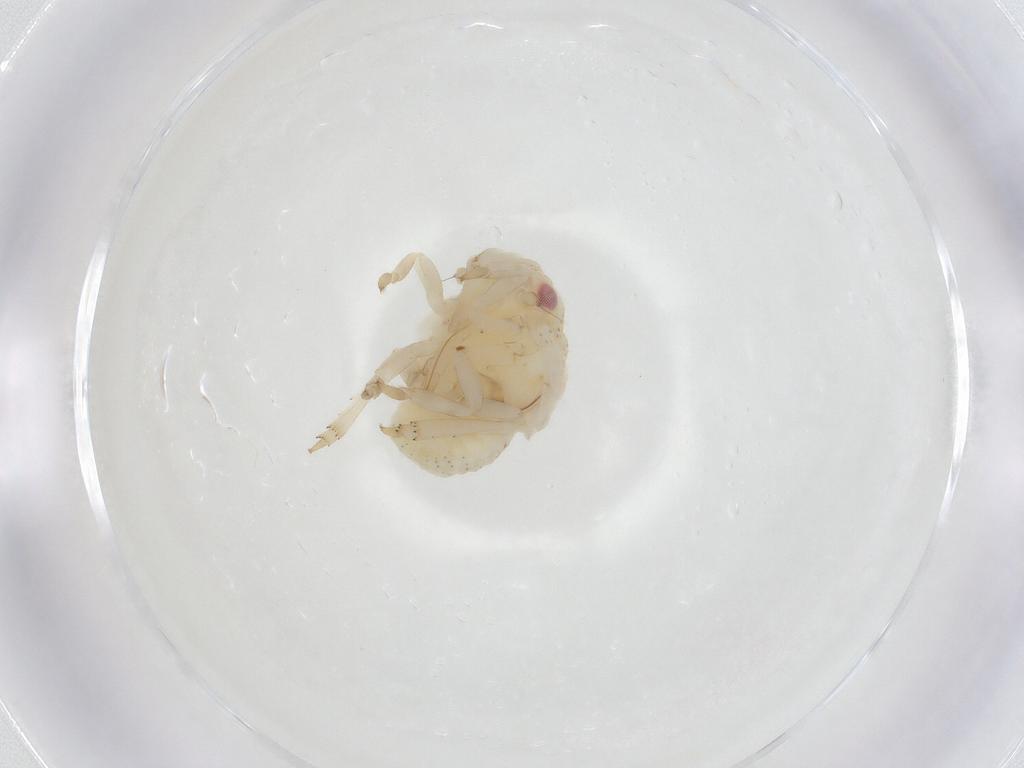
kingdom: Animalia
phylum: Arthropoda
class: Insecta
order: Hemiptera
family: Acanaloniidae
